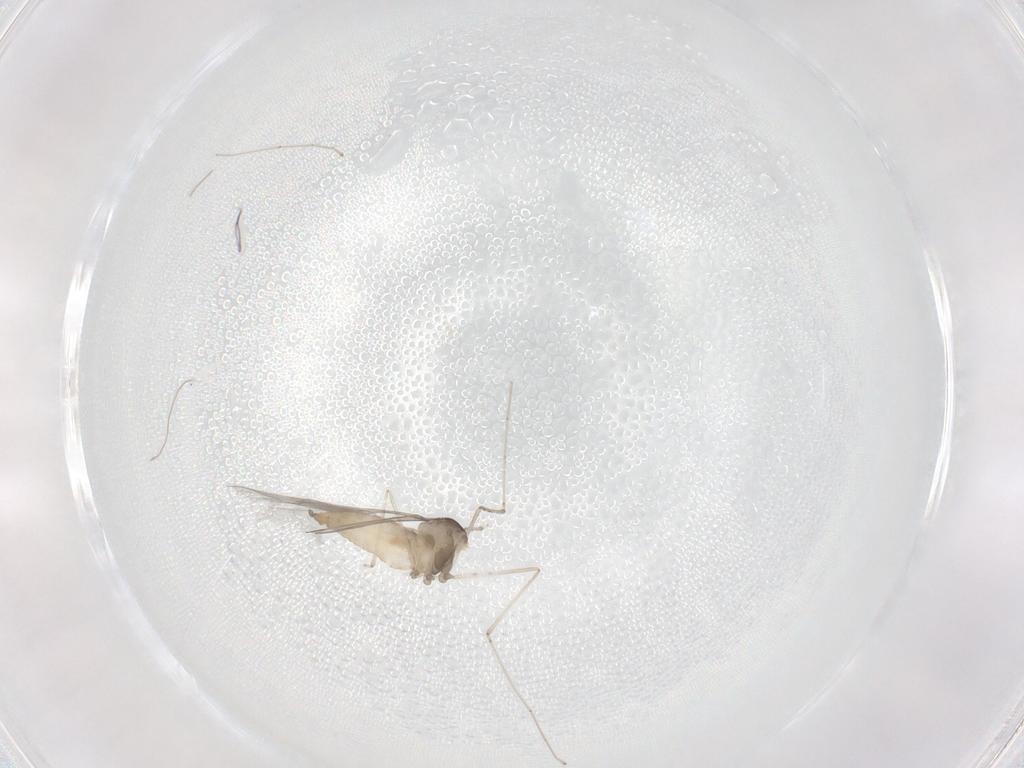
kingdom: Animalia
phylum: Arthropoda
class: Insecta
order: Diptera
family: Cecidomyiidae
